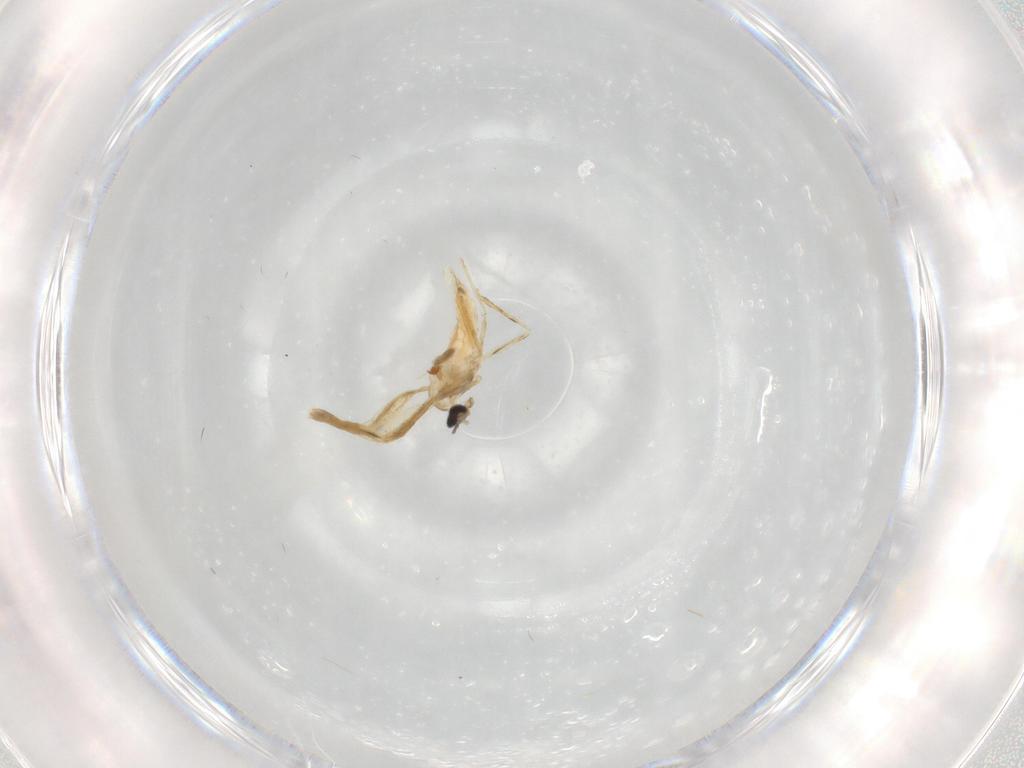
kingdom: Animalia
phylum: Arthropoda
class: Insecta
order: Diptera
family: Cecidomyiidae
